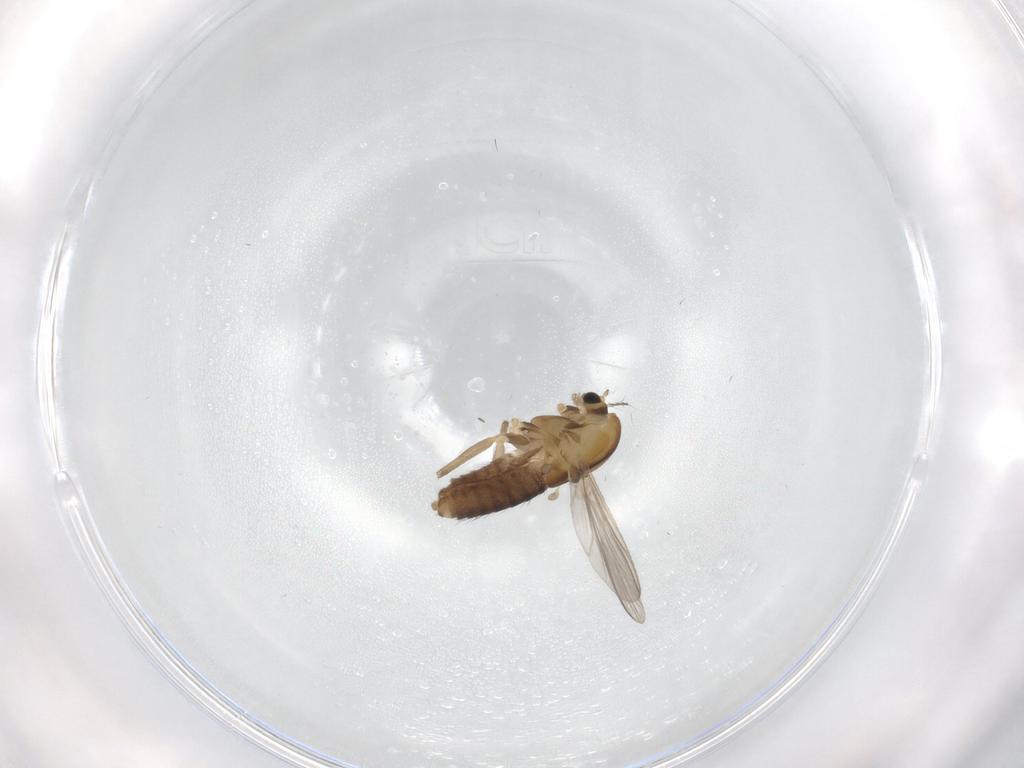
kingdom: Animalia
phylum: Arthropoda
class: Insecta
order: Diptera
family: Chironomidae
